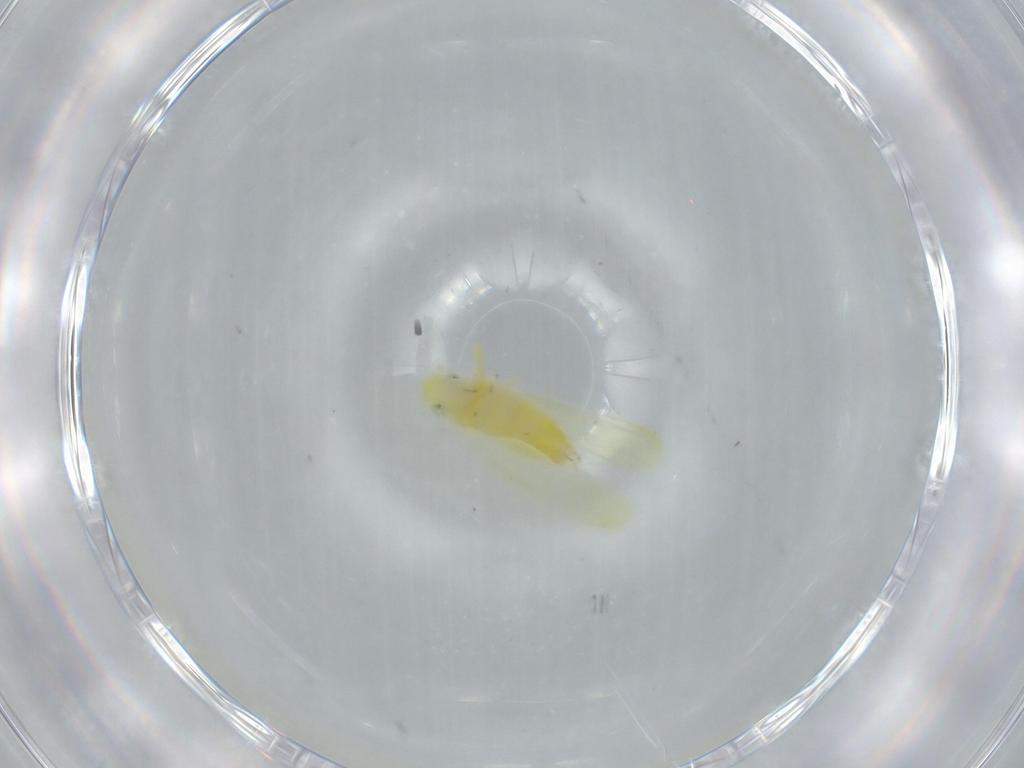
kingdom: Animalia
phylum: Arthropoda
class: Insecta
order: Hemiptera
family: Cicadellidae
